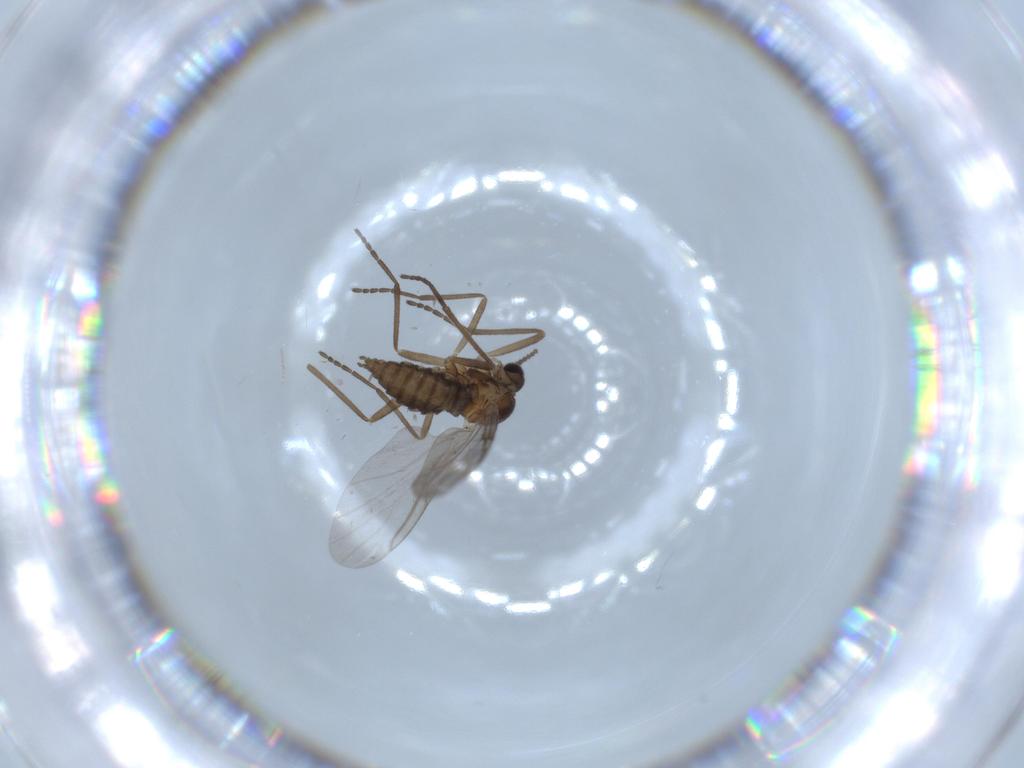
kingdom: Animalia
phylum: Arthropoda
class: Insecta
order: Diptera
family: Cecidomyiidae
